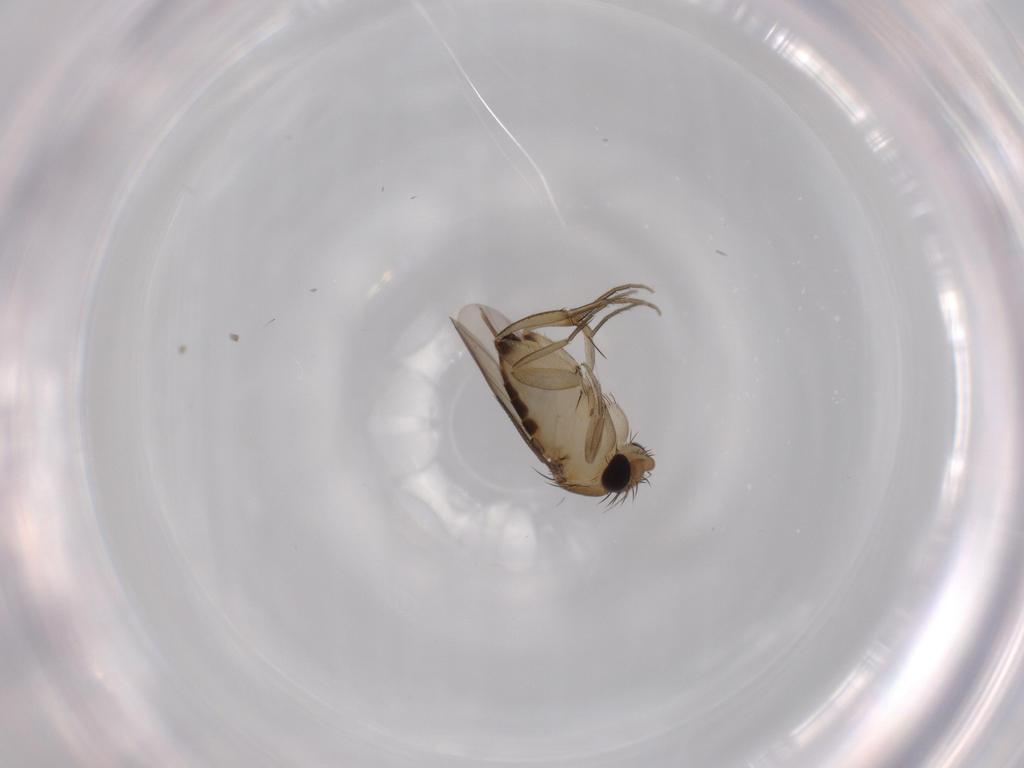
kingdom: Animalia
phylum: Arthropoda
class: Insecta
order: Diptera
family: Phoridae
